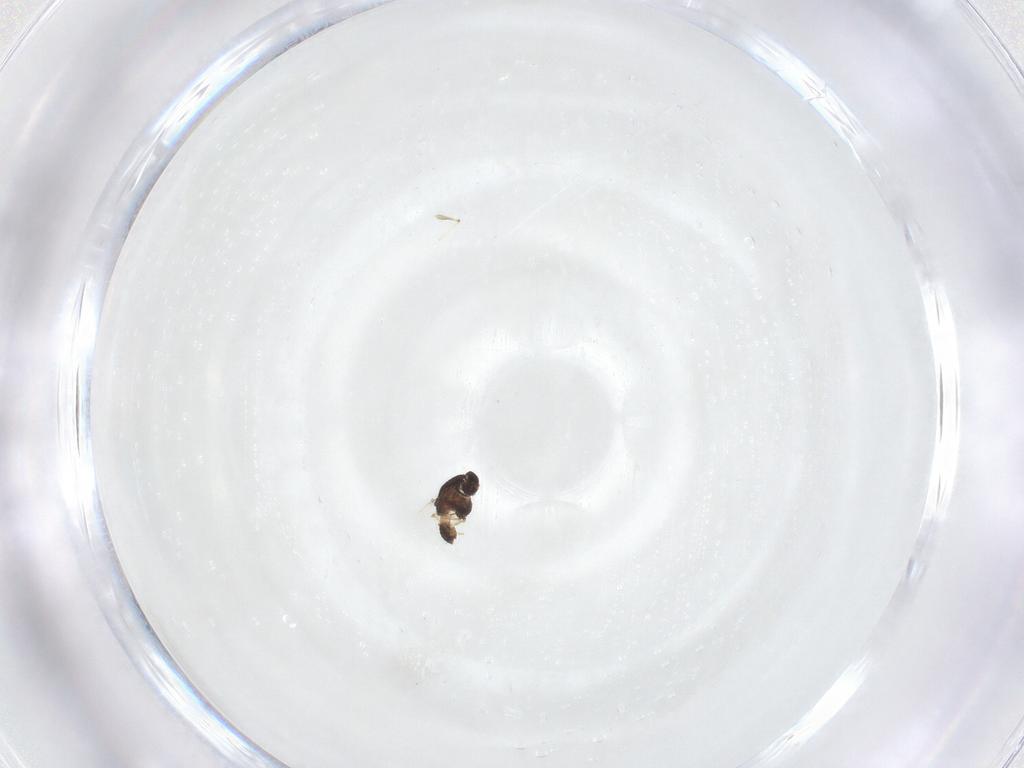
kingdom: Animalia
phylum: Arthropoda
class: Insecta
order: Diptera
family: Chironomidae
